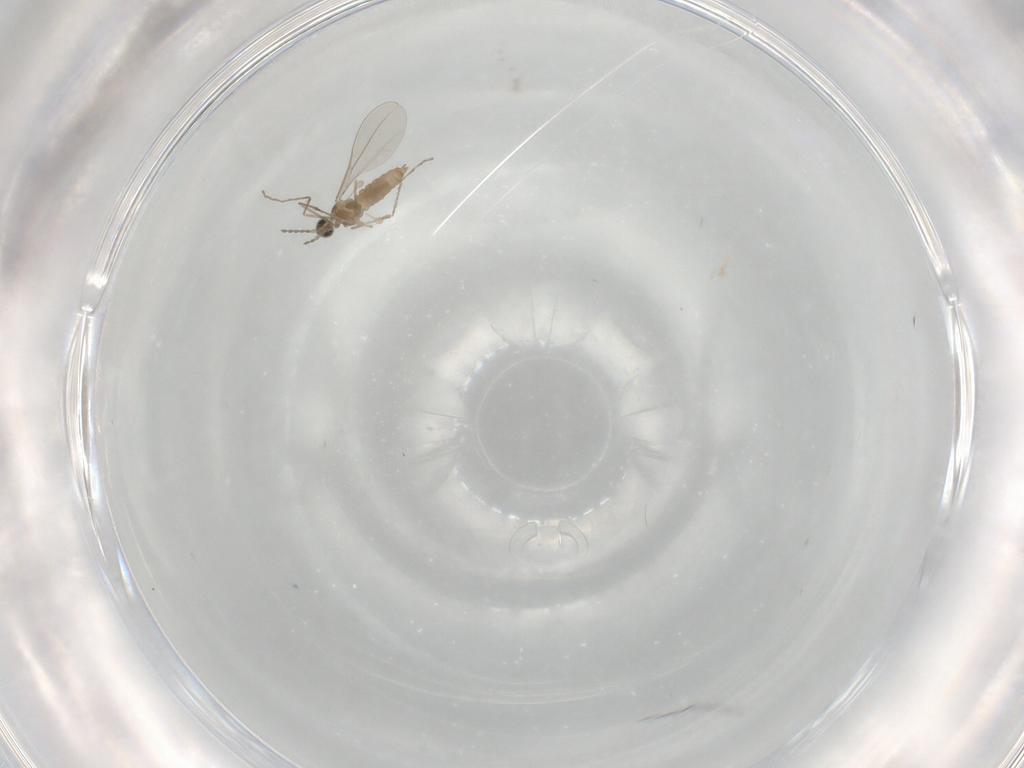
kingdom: Animalia
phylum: Arthropoda
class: Insecta
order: Diptera
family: Cecidomyiidae
